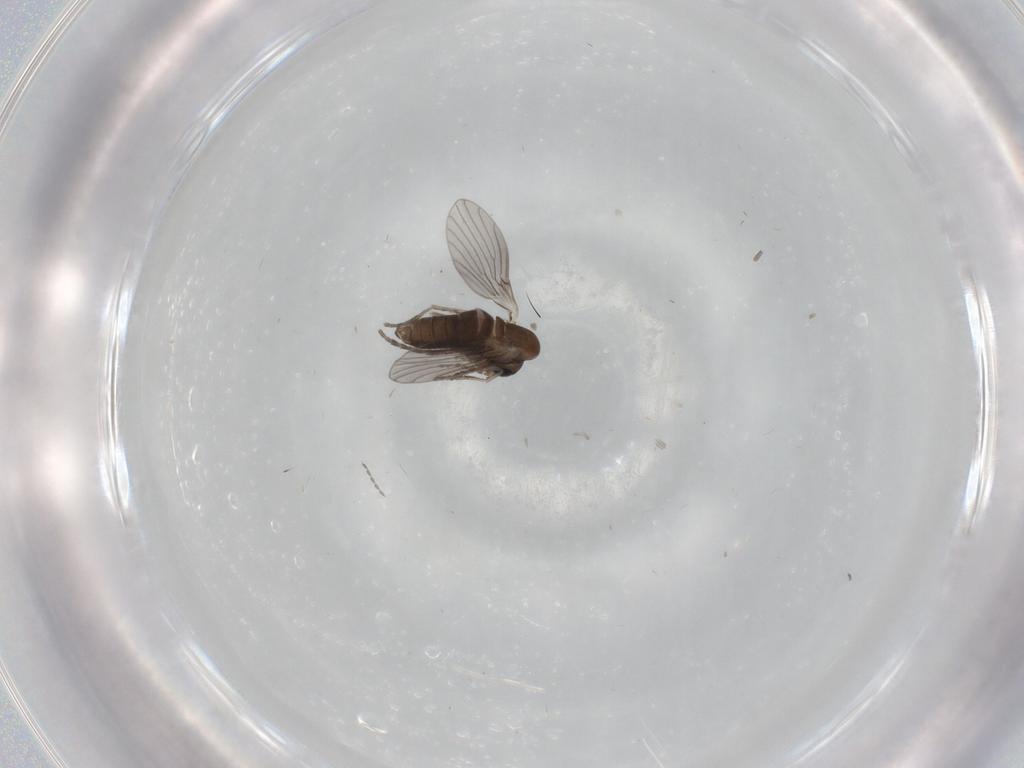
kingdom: Animalia
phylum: Arthropoda
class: Insecta
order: Diptera
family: Cecidomyiidae
